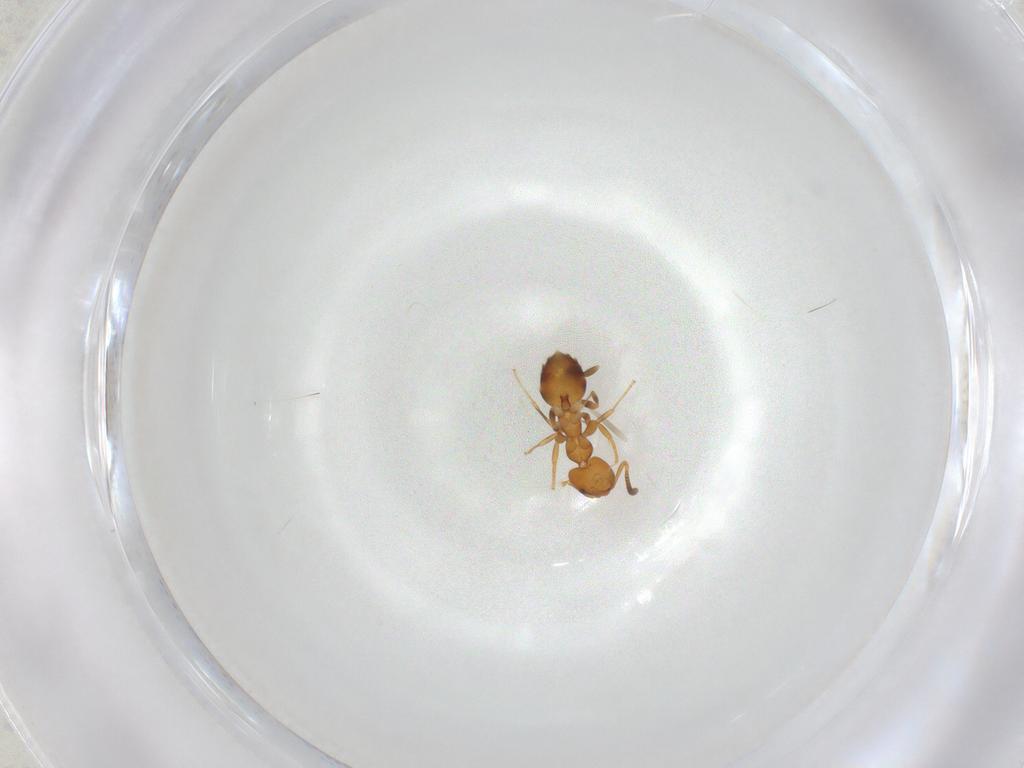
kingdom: Animalia
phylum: Arthropoda
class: Insecta
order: Hymenoptera
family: Formicidae
